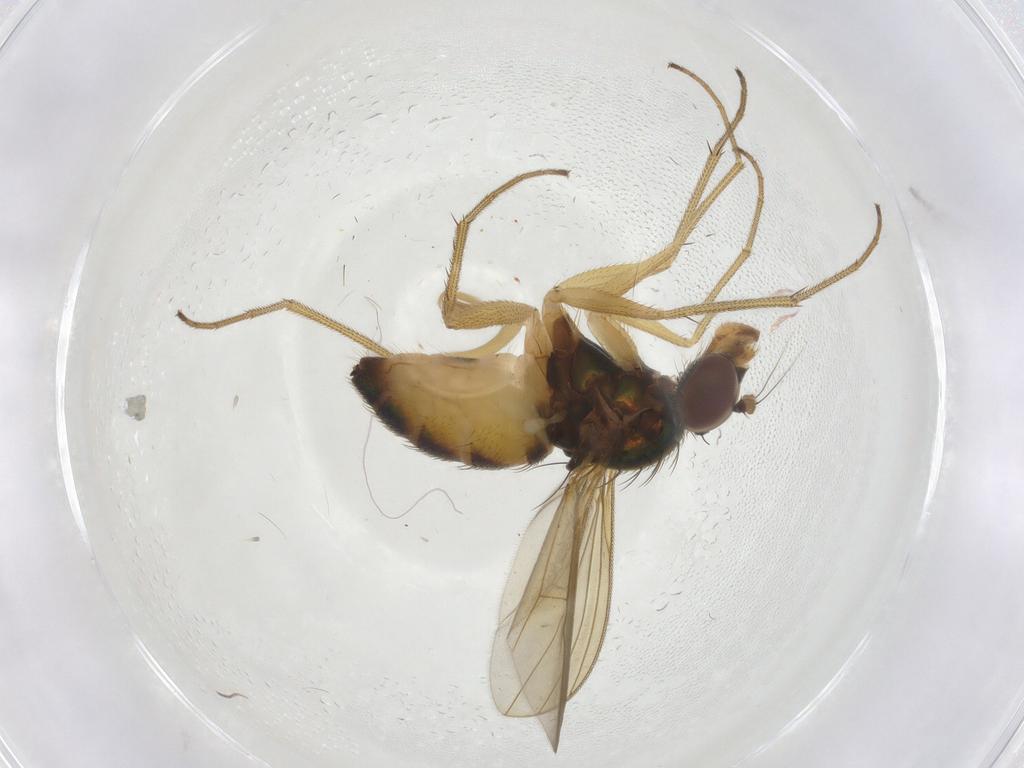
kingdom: Animalia
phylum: Arthropoda
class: Insecta
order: Diptera
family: Dolichopodidae
